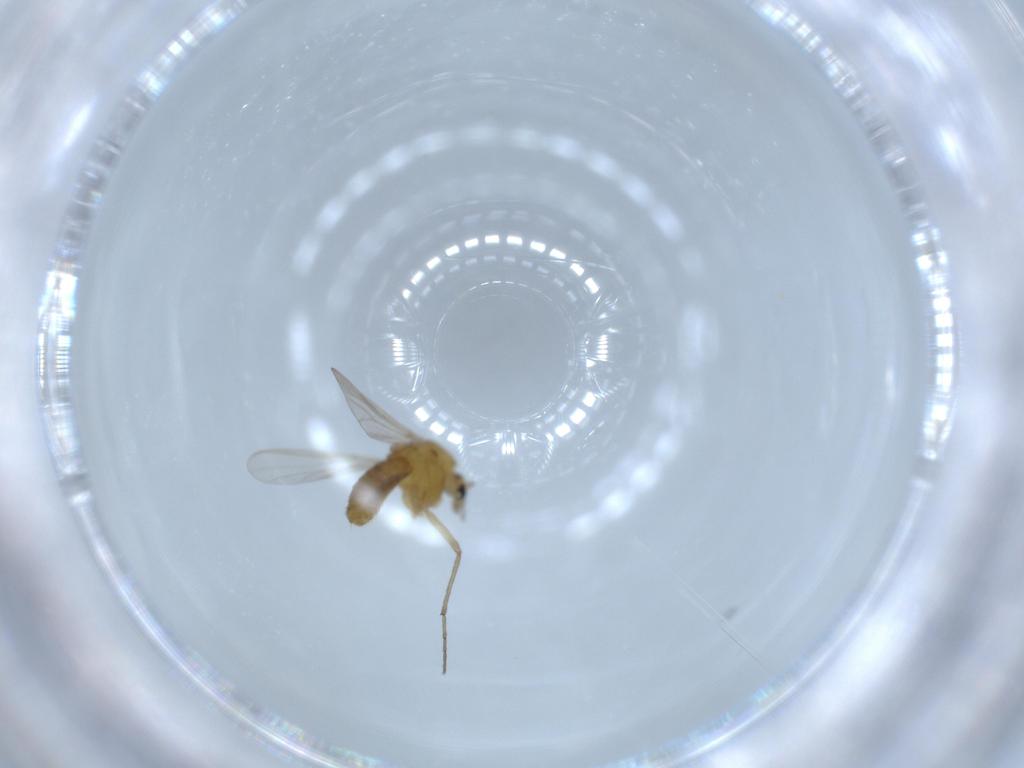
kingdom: Animalia
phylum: Arthropoda
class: Insecta
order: Diptera
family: Chironomidae
